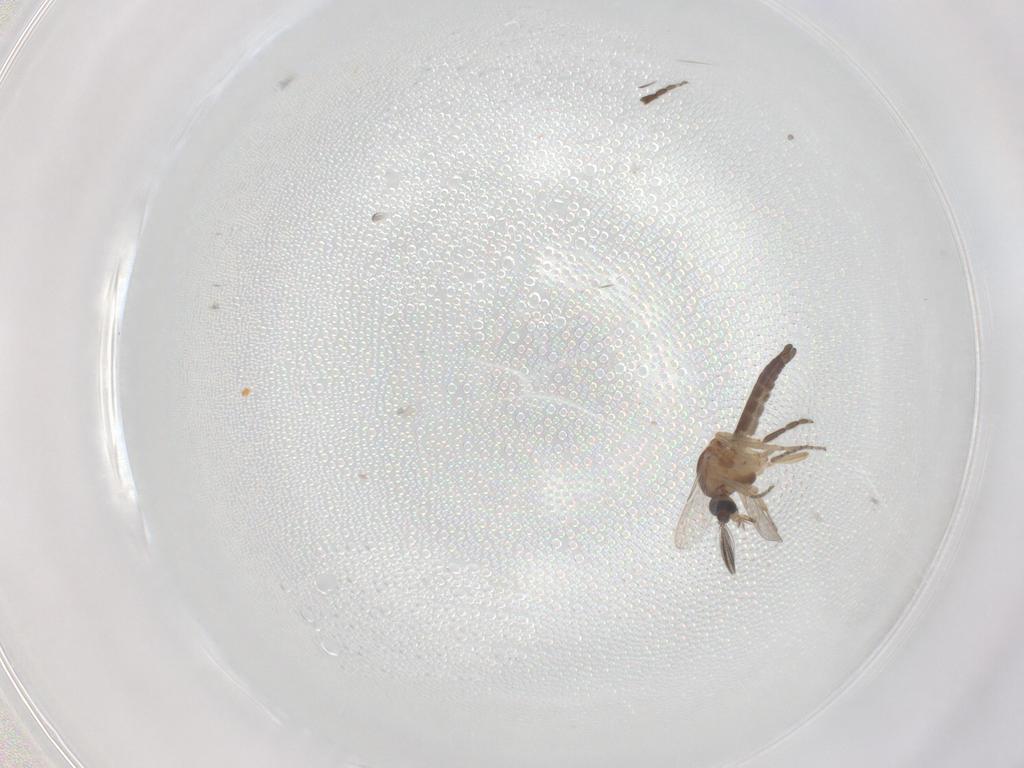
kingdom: Animalia
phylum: Arthropoda
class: Insecta
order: Diptera
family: Ceratopogonidae
